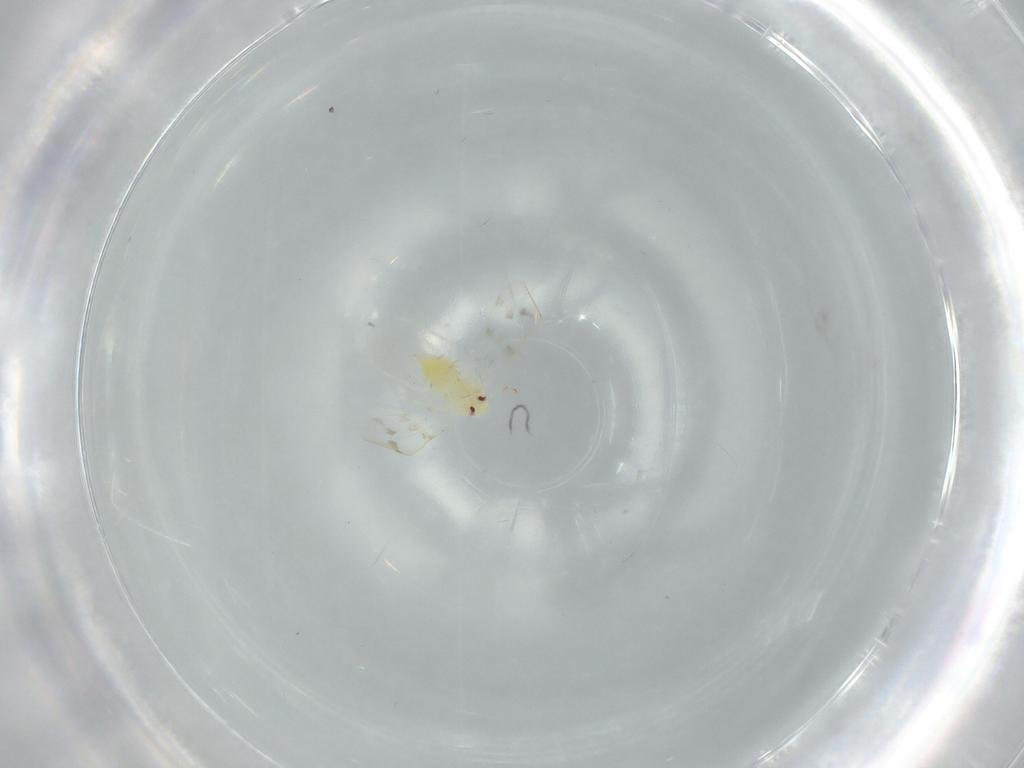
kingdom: Animalia
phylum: Arthropoda
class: Insecta
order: Hemiptera
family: Aleyrodidae
